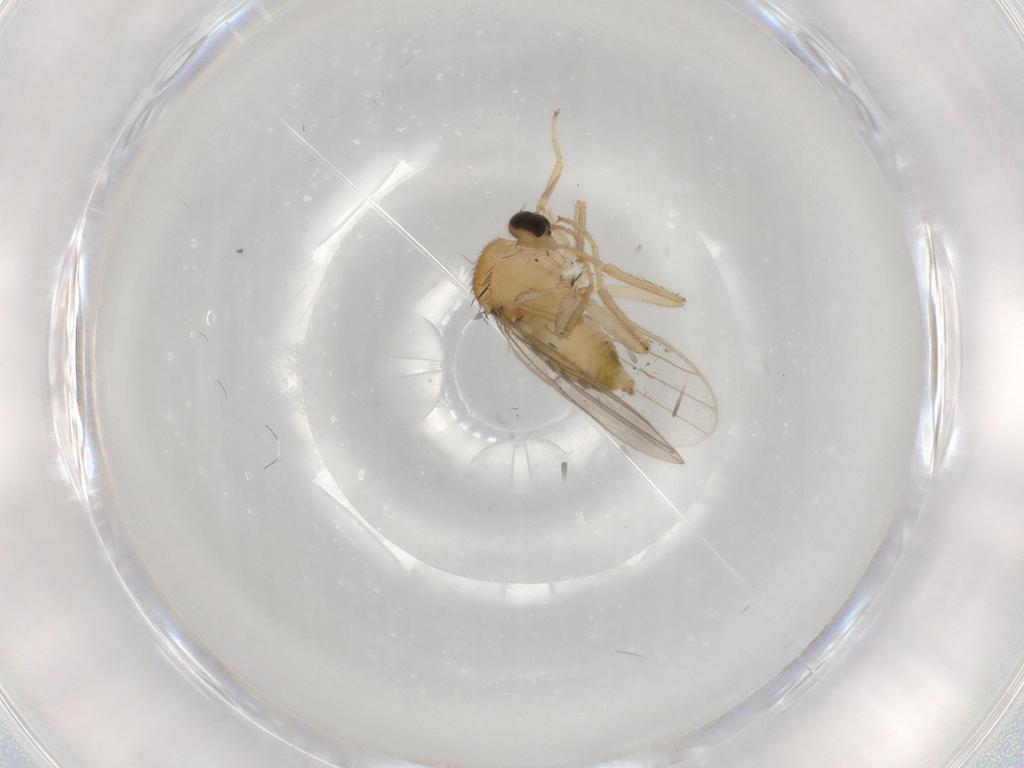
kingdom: Animalia
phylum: Arthropoda
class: Insecta
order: Diptera
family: Hybotidae
